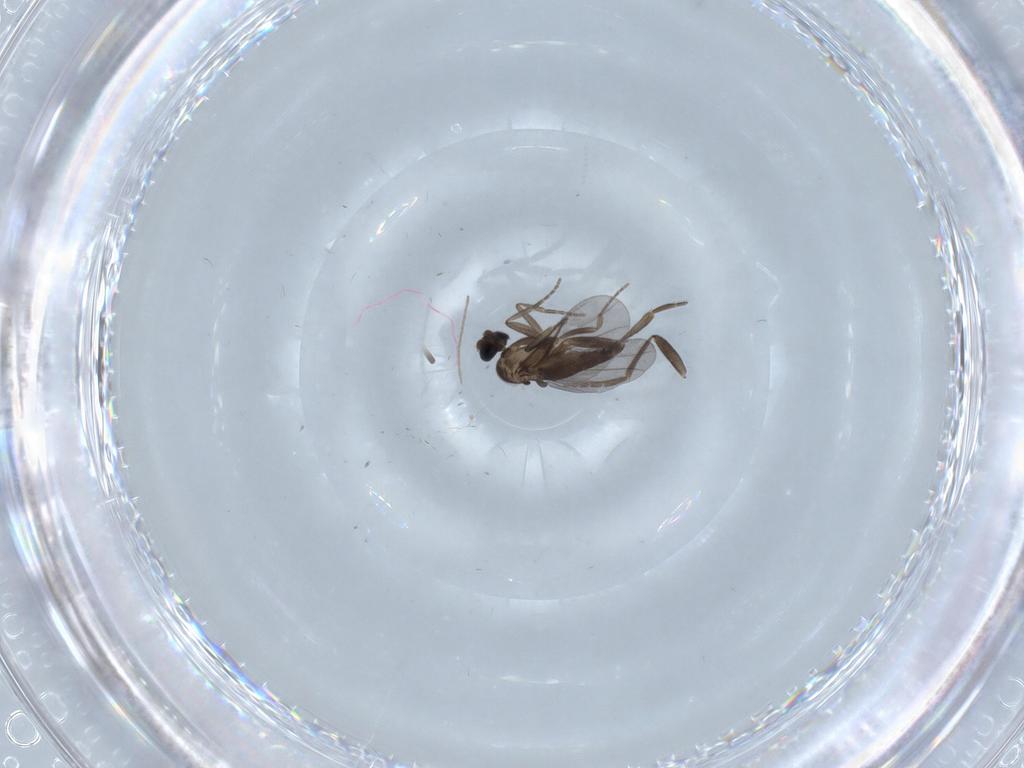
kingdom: Animalia
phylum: Arthropoda
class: Insecta
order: Diptera
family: Chironomidae
